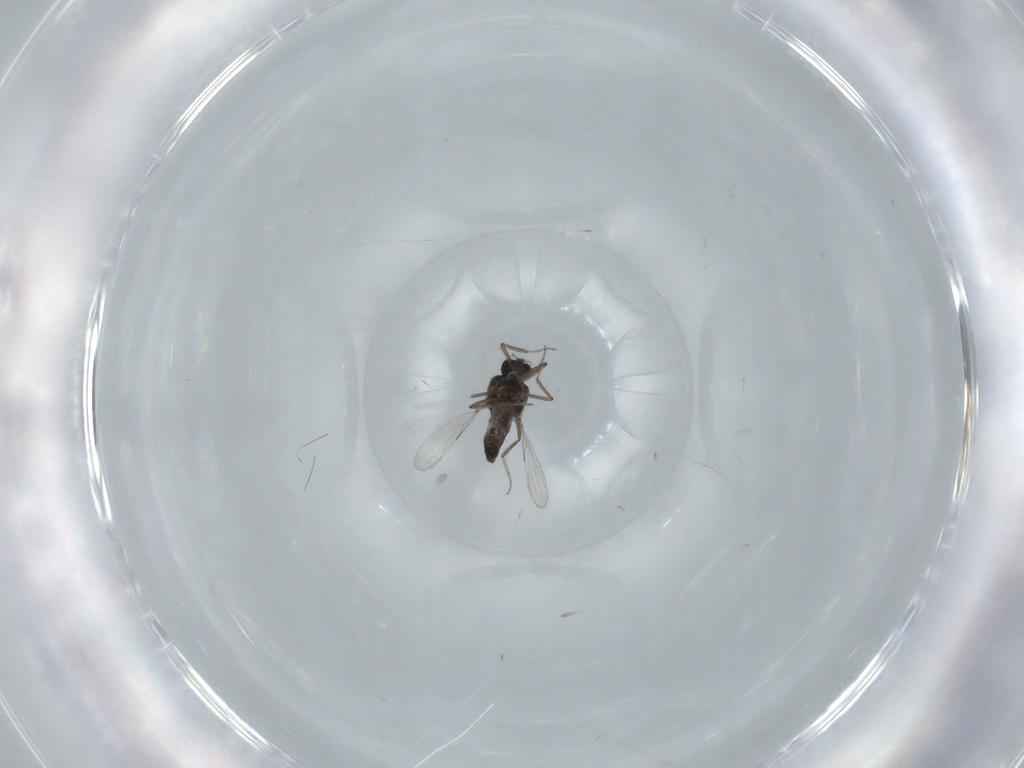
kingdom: Animalia
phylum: Arthropoda
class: Insecta
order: Diptera
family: Ceratopogonidae
